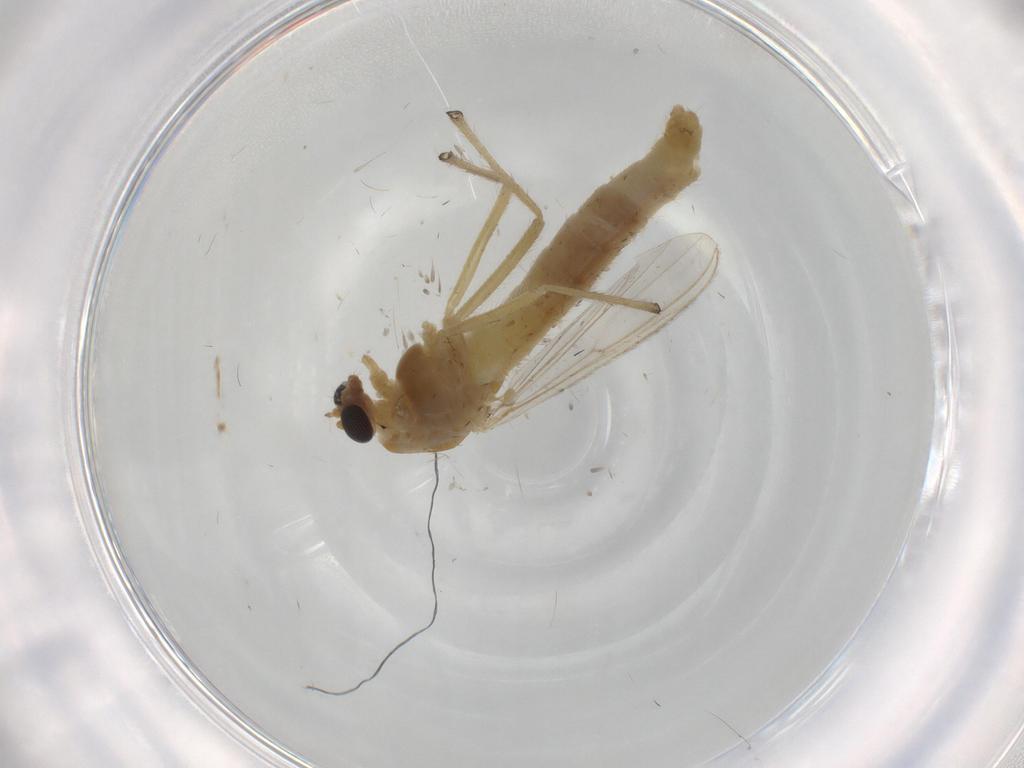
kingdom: Animalia
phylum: Arthropoda
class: Insecta
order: Diptera
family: Chironomidae
